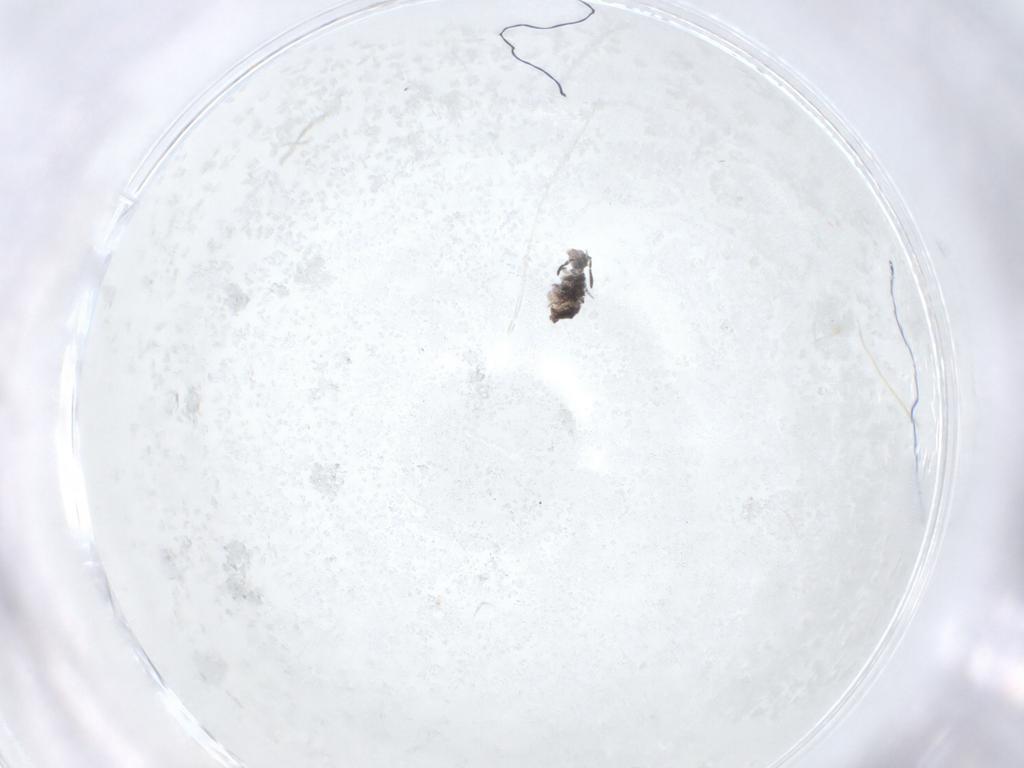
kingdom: Animalia
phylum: Arthropoda
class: Collembola
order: Symphypleona
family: Katiannidae
